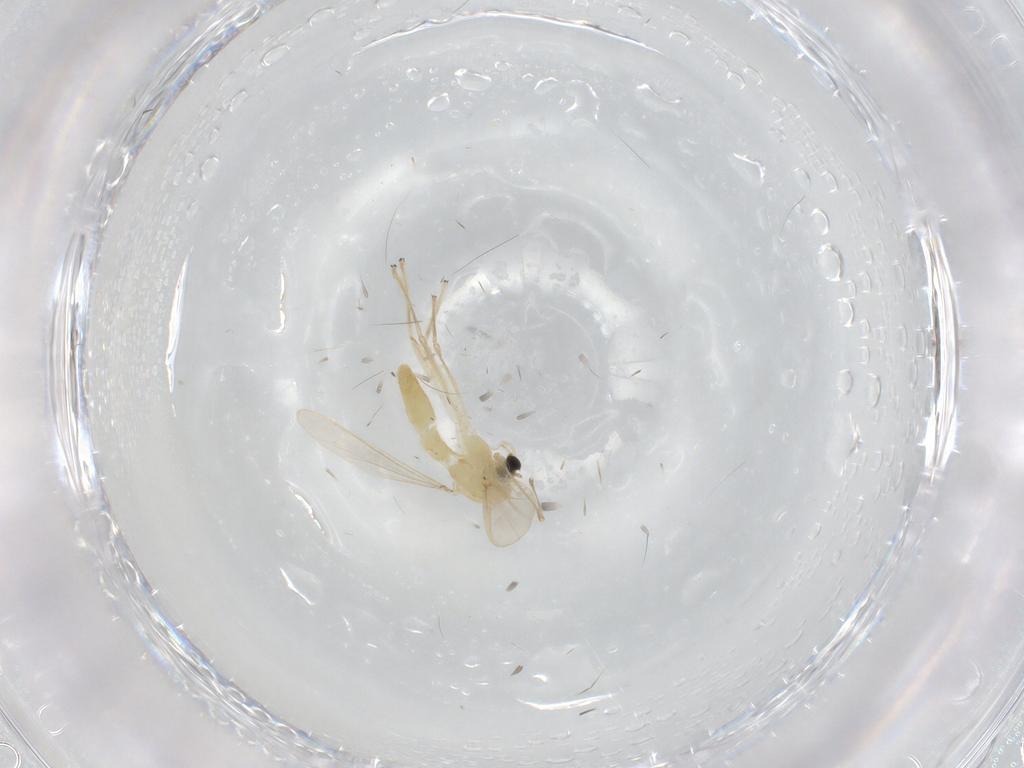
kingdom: Animalia
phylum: Arthropoda
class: Insecta
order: Diptera
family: Chironomidae
